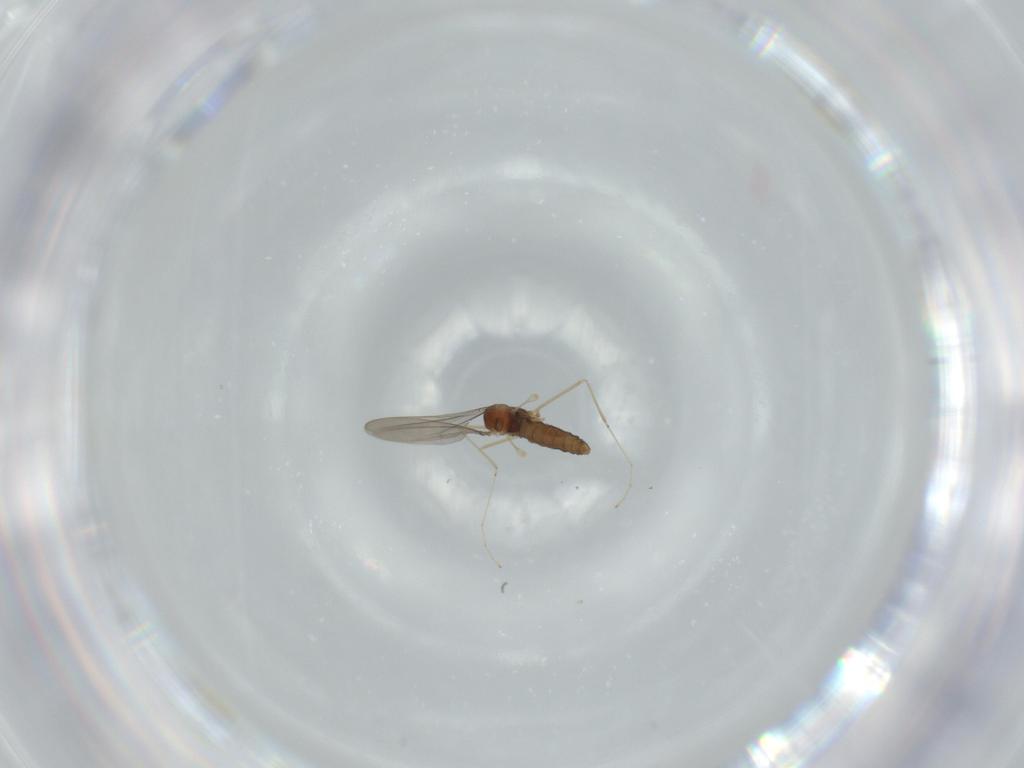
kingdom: Animalia
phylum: Arthropoda
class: Insecta
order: Diptera
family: Cecidomyiidae
